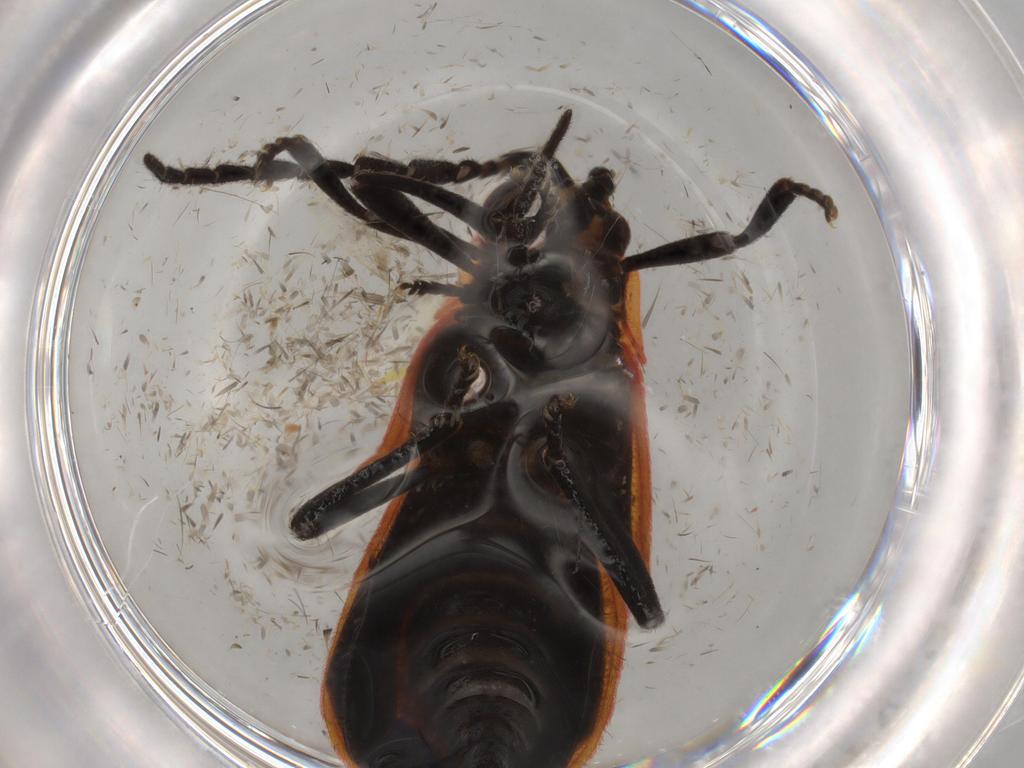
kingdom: Animalia
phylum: Arthropoda
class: Insecta
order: Coleoptera
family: Lycidae
